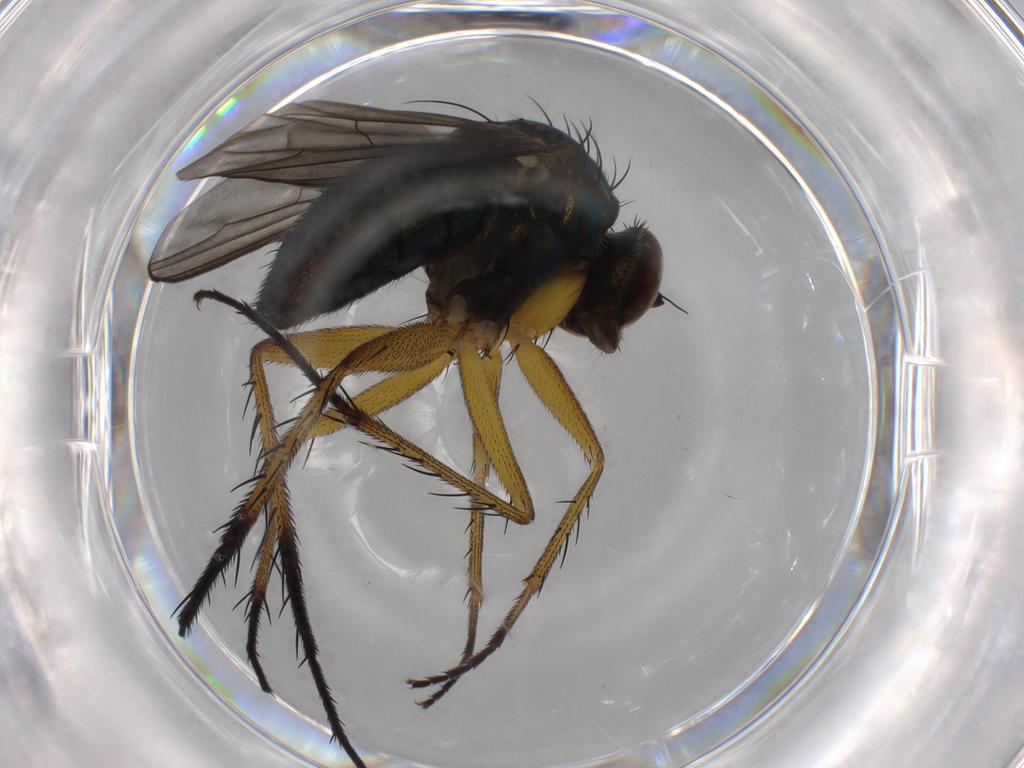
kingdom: Animalia
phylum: Arthropoda
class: Insecta
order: Diptera
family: Dolichopodidae
